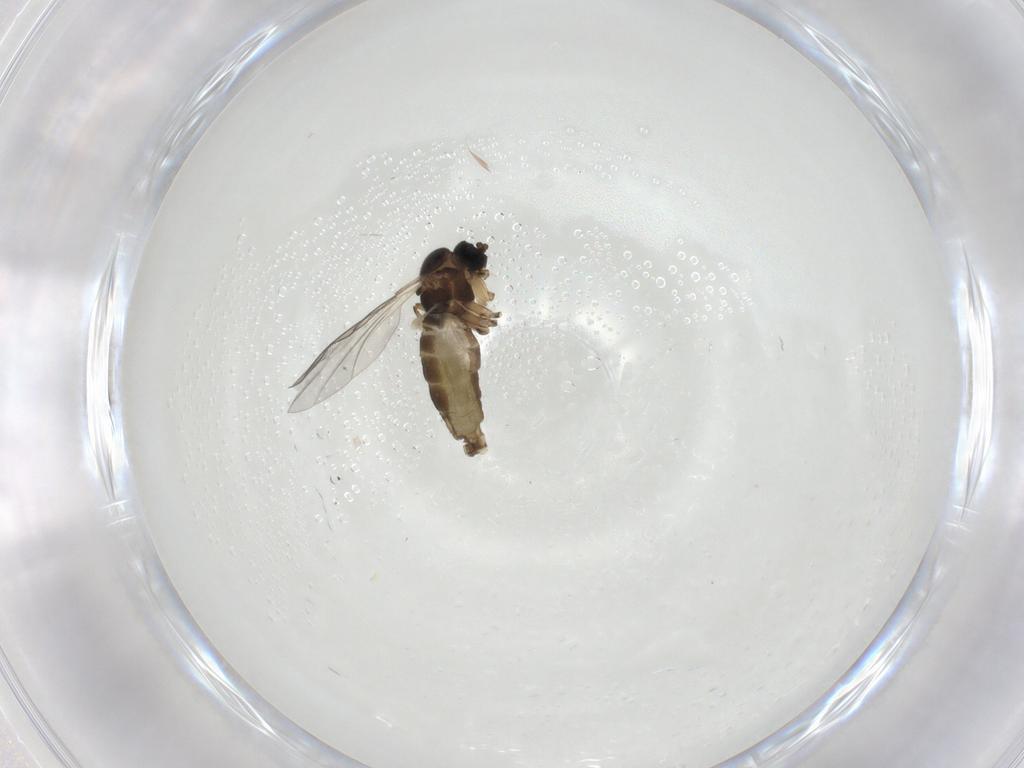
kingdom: Animalia
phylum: Arthropoda
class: Insecta
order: Diptera
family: Sciaridae
